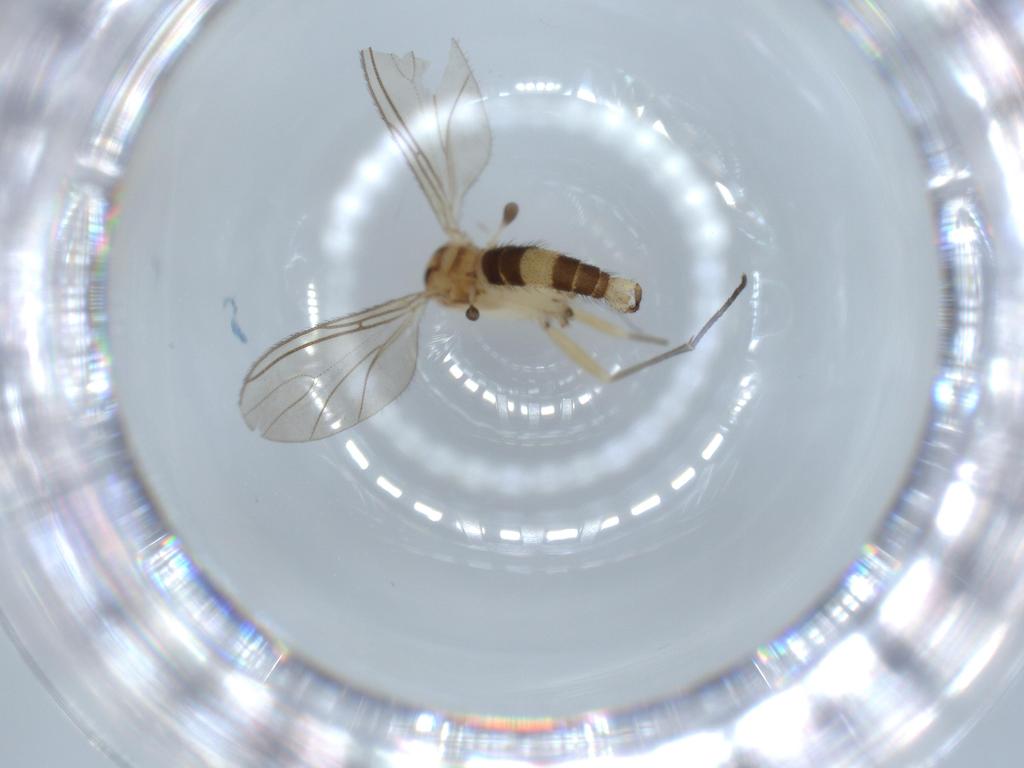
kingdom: Animalia
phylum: Arthropoda
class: Insecta
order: Diptera
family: Sciaridae
